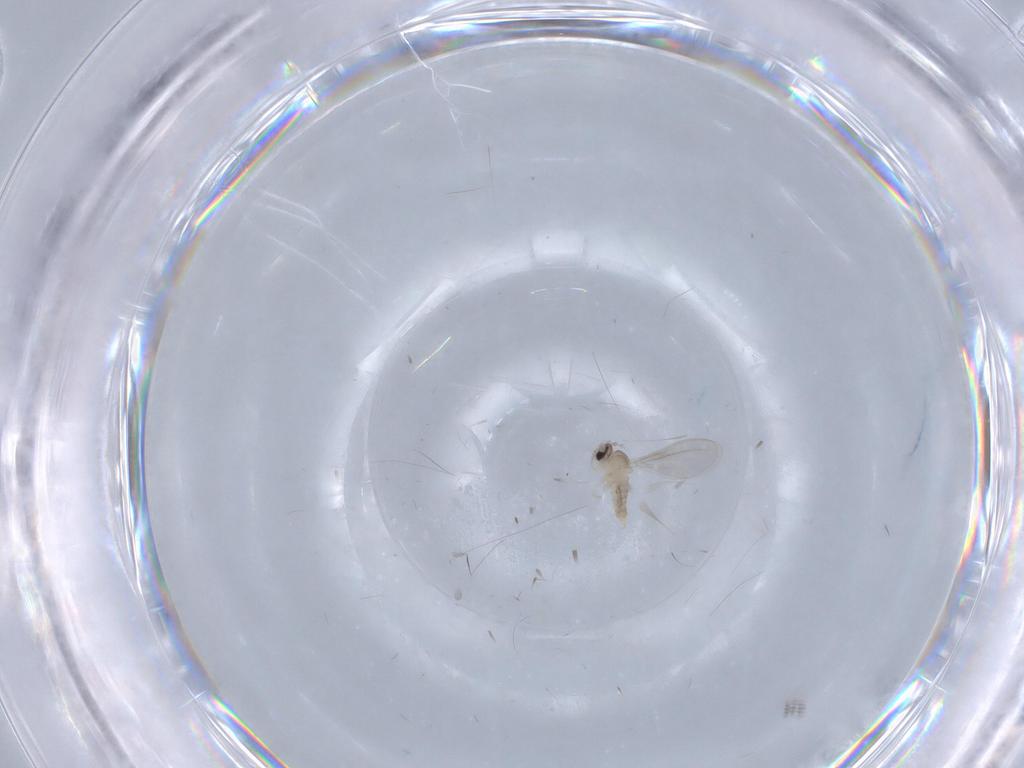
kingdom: Animalia
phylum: Arthropoda
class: Insecta
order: Diptera
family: Cecidomyiidae
